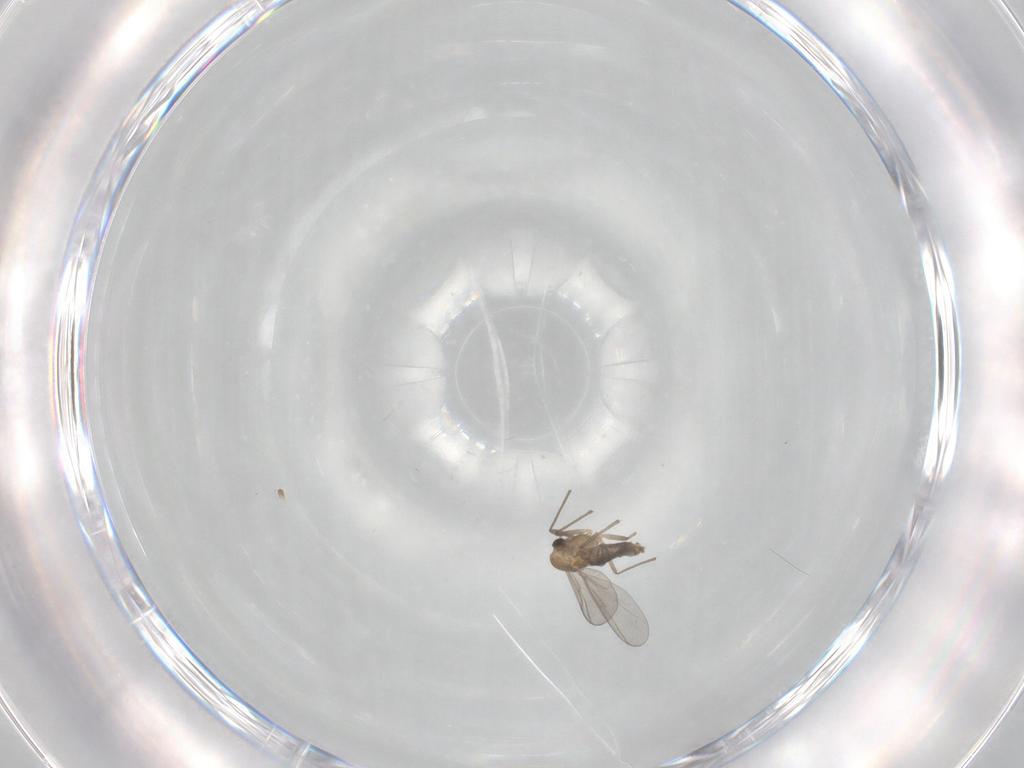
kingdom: Animalia
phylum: Arthropoda
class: Insecta
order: Diptera
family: Chironomidae
